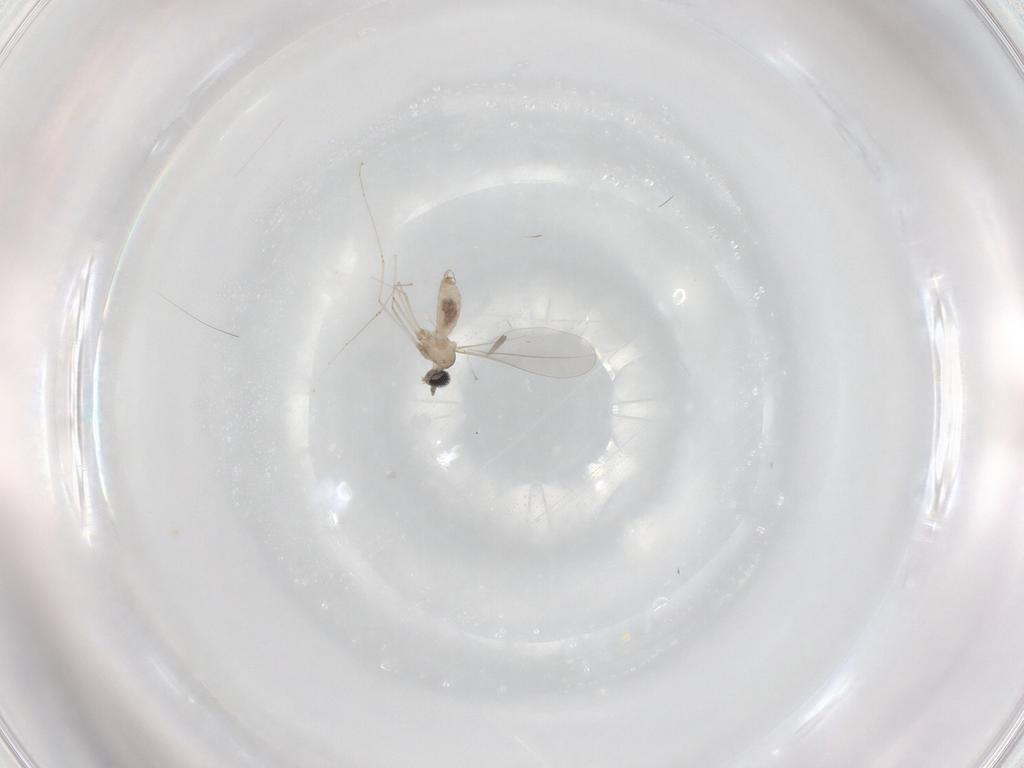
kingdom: Animalia
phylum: Arthropoda
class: Insecta
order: Diptera
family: Cecidomyiidae
